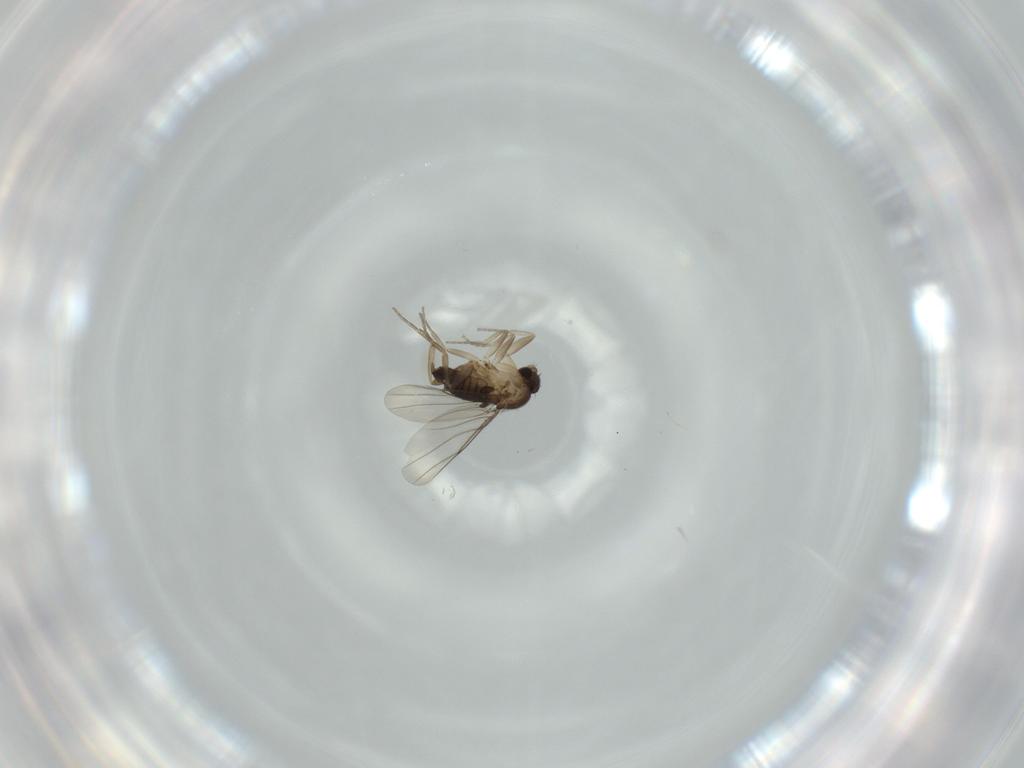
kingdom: Animalia
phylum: Arthropoda
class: Insecta
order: Diptera
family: Phoridae
